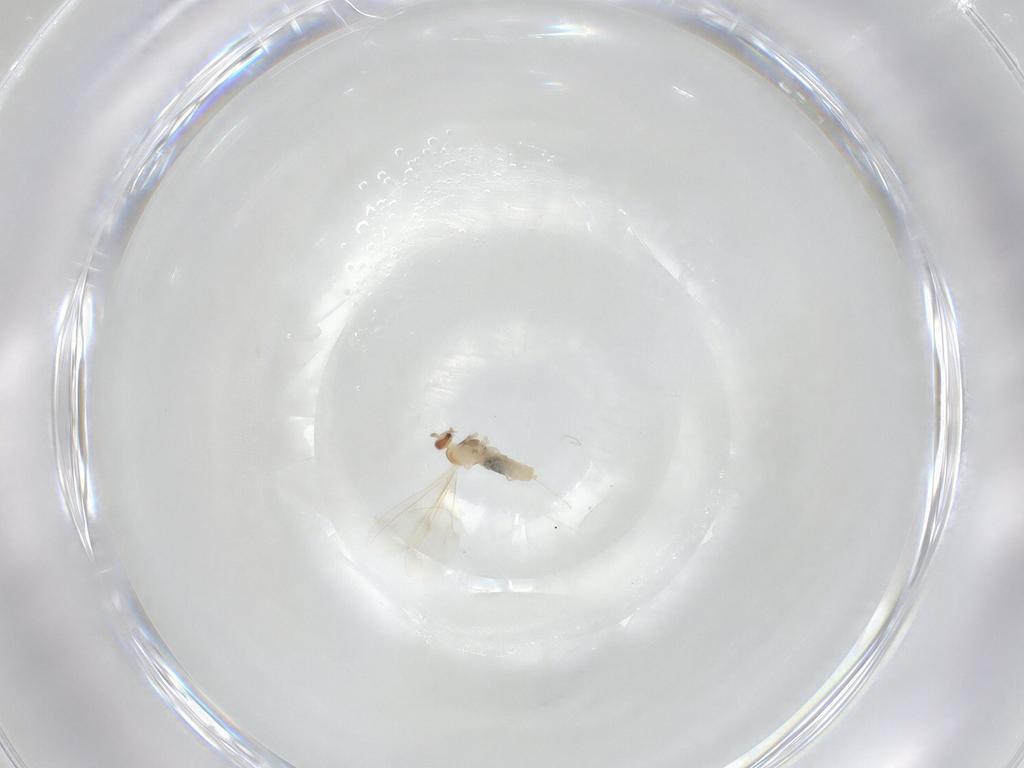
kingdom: Animalia
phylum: Arthropoda
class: Insecta
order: Diptera
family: Cecidomyiidae
